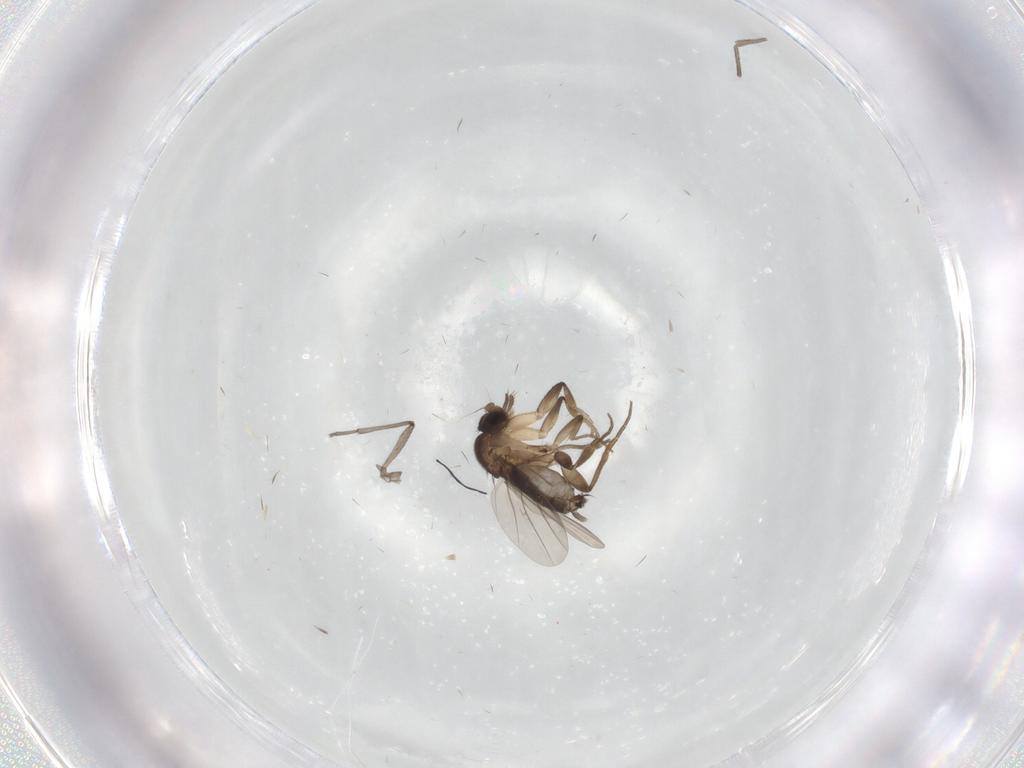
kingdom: Animalia
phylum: Arthropoda
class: Insecta
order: Diptera
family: Sciaridae
